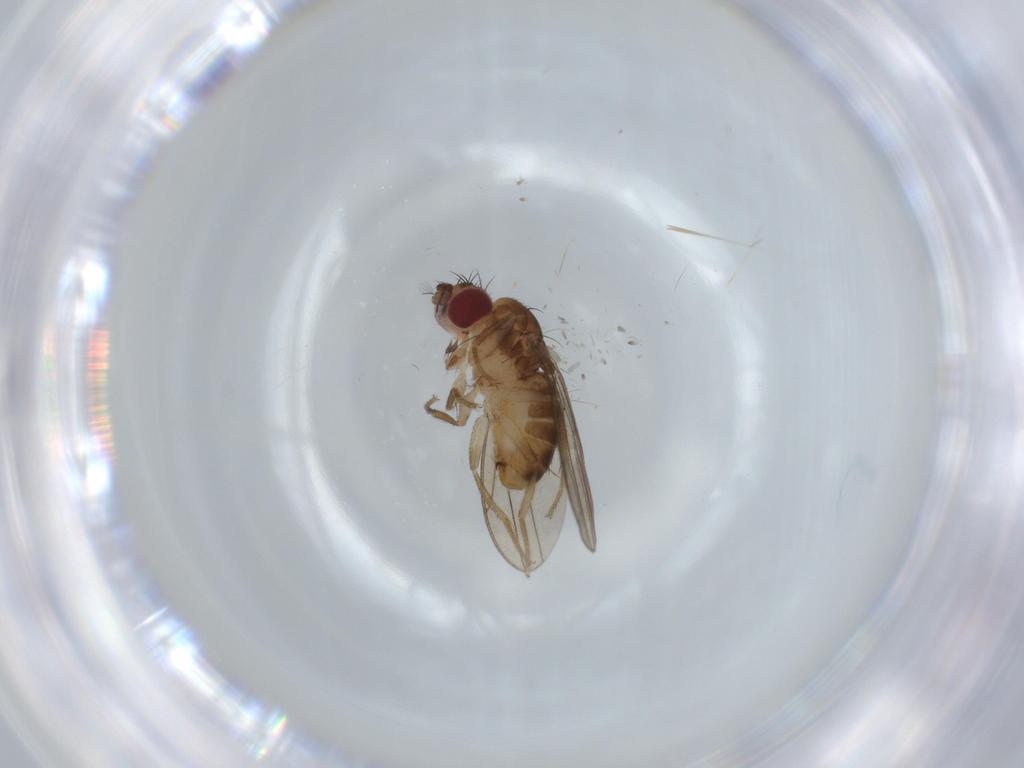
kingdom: Animalia
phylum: Arthropoda
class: Insecta
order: Diptera
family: Sphaeroceridae
